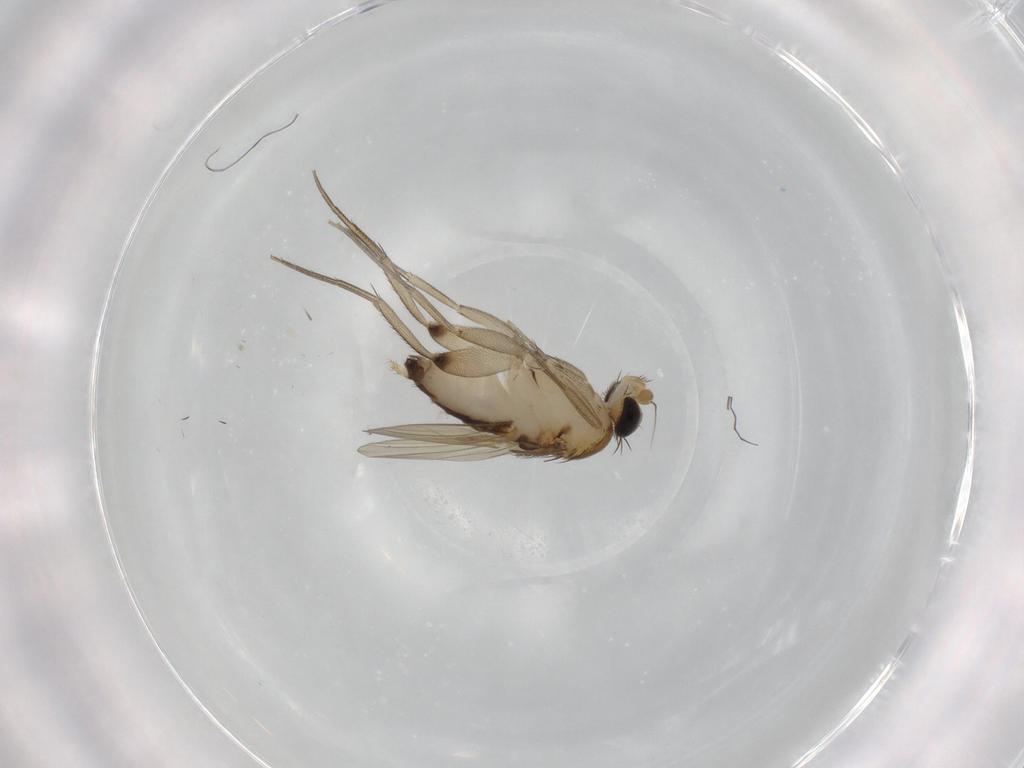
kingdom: Animalia
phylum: Arthropoda
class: Insecta
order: Diptera
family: Phoridae
